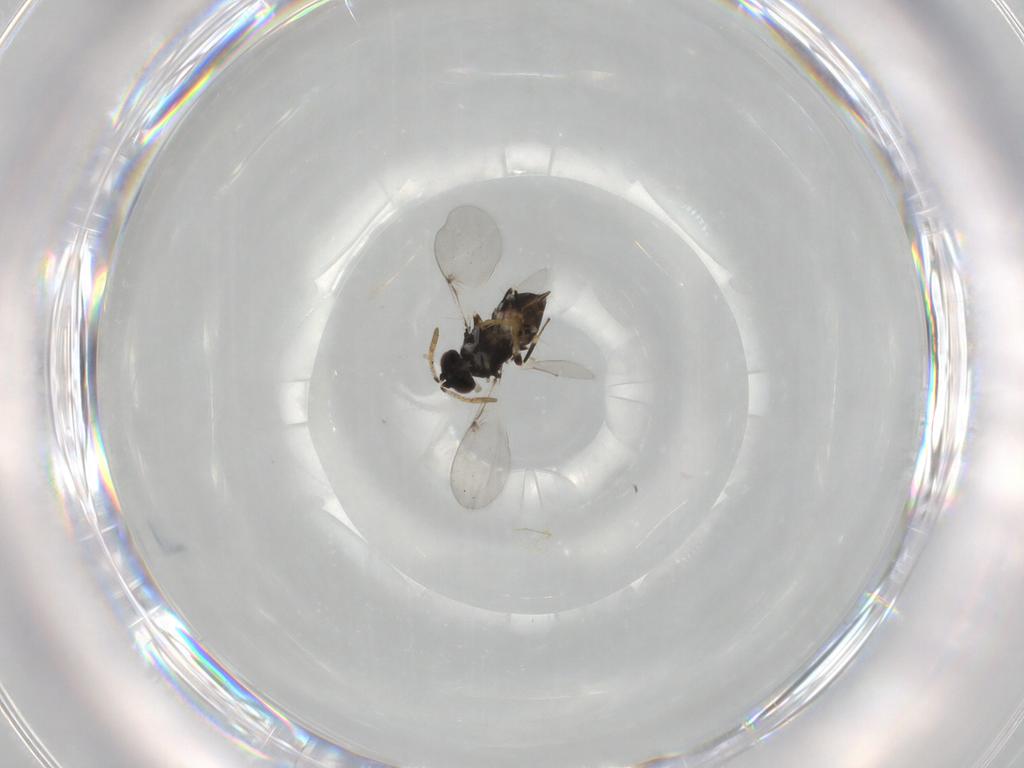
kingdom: Animalia
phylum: Arthropoda
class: Insecta
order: Hymenoptera
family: Encyrtidae
